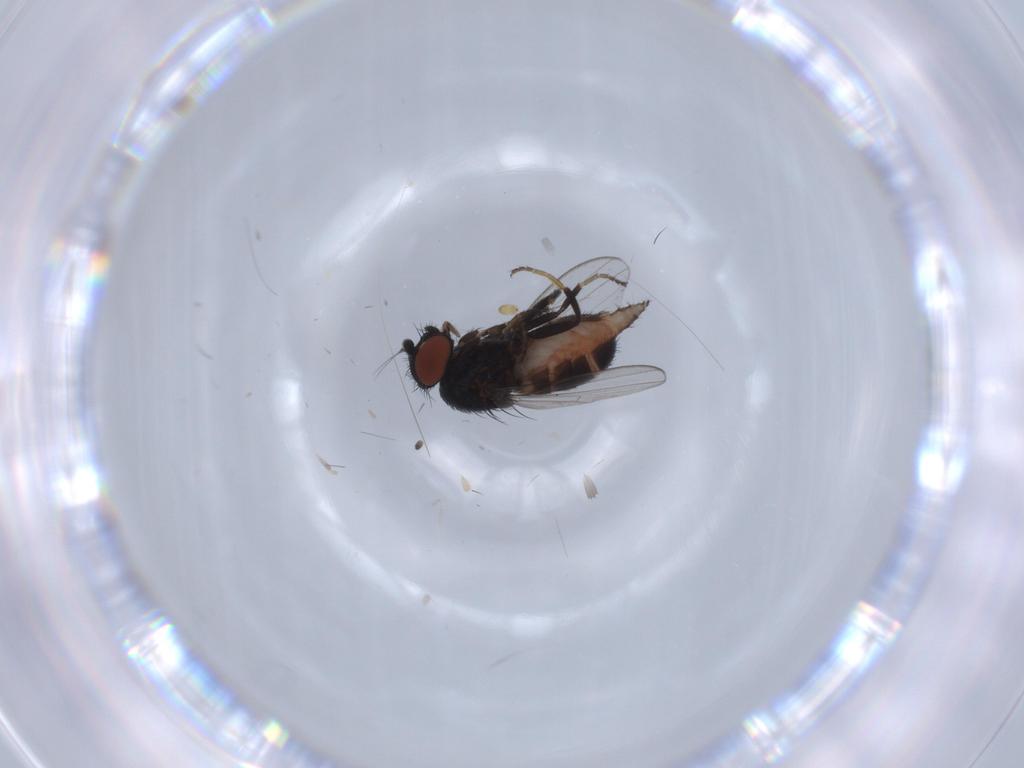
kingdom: Animalia
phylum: Arthropoda
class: Insecta
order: Diptera
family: Milichiidae
